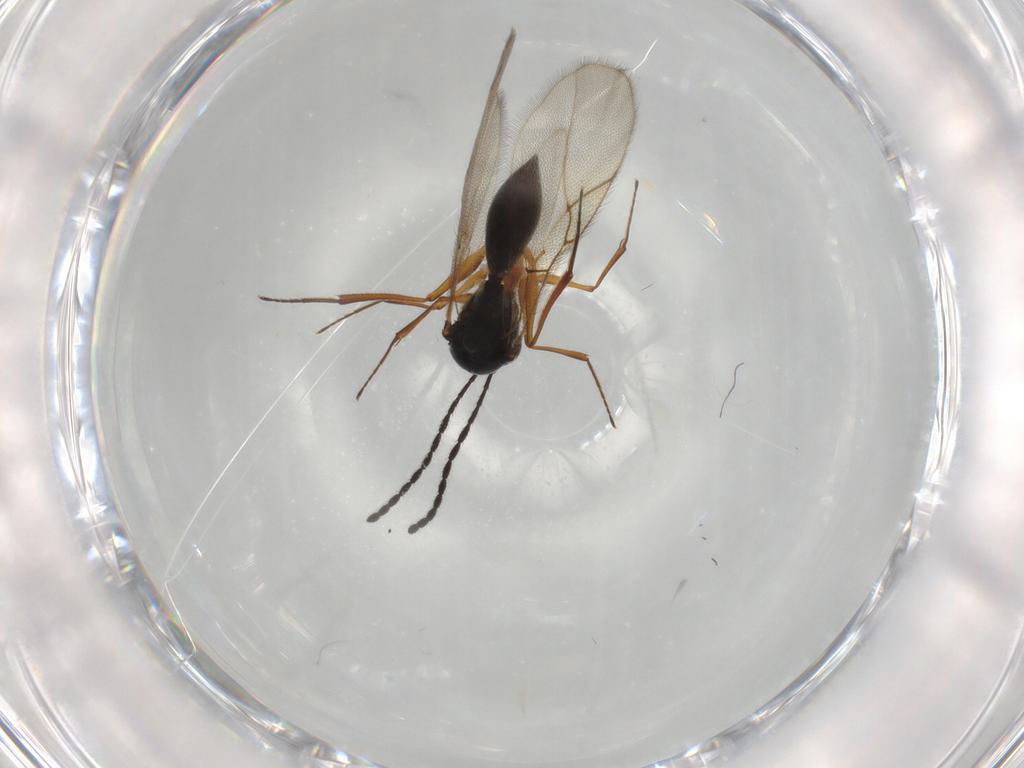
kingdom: Animalia
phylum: Arthropoda
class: Insecta
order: Hymenoptera
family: Figitidae
